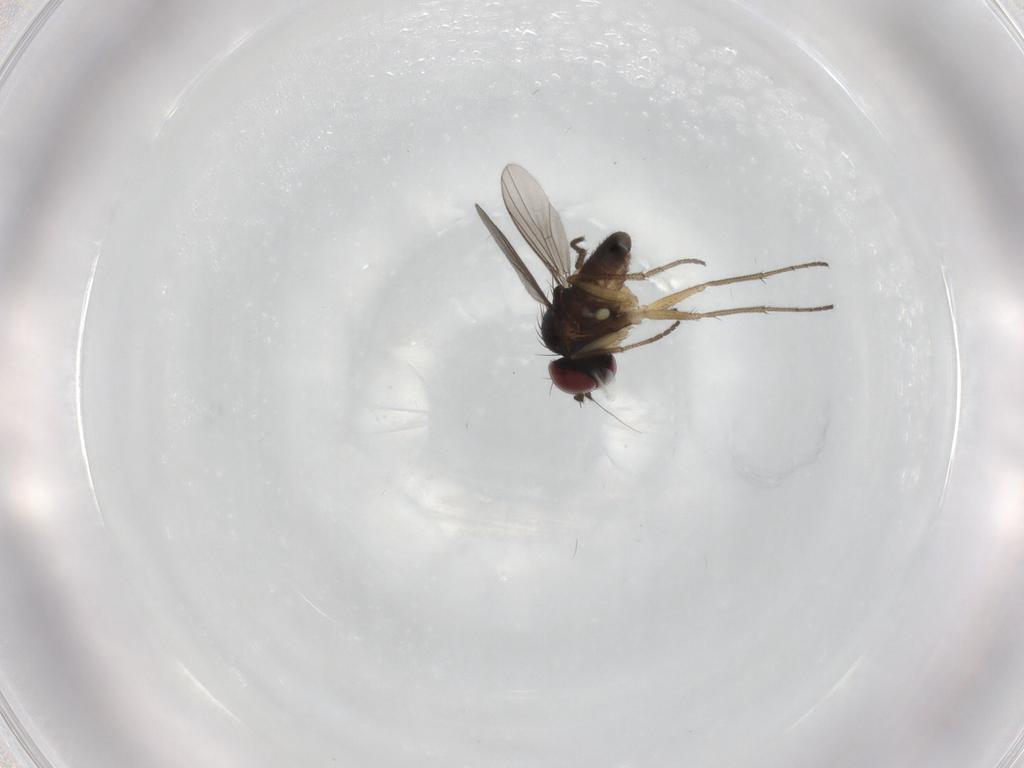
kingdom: Animalia
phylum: Arthropoda
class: Insecta
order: Diptera
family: Dolichopodidae
